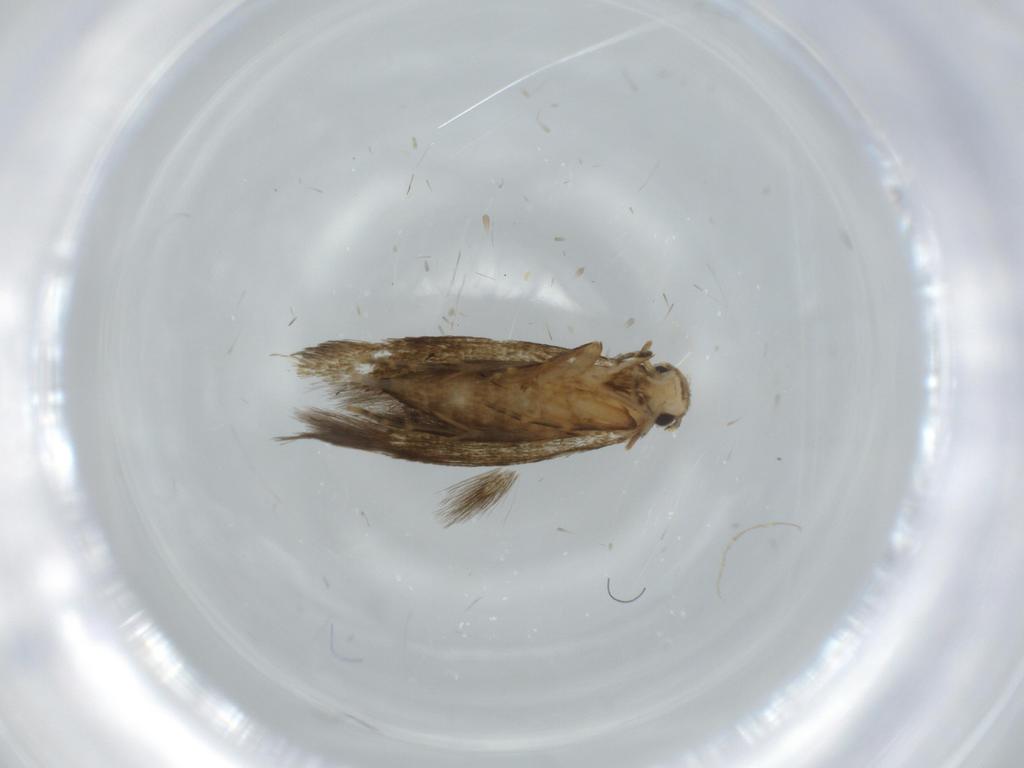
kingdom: Animalia
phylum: Arthropoda
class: Insecta
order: Lepidoptera
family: Tineidae
